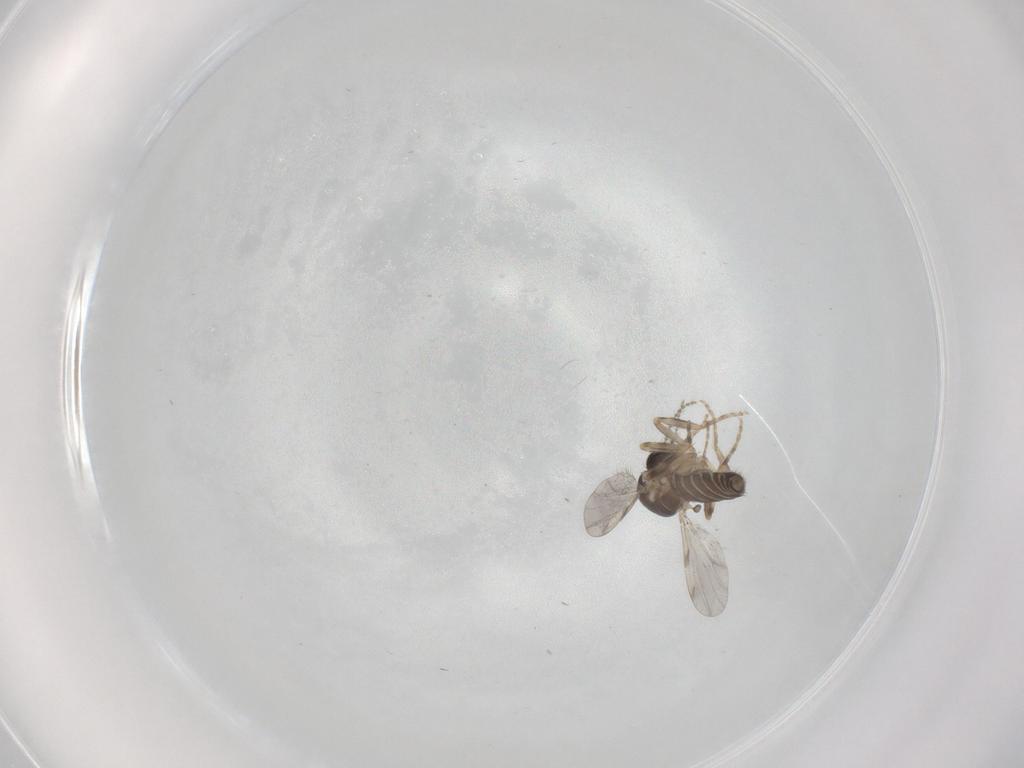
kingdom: Animalia
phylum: Arthropoda
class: Insecta
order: Diptera
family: Ceratopogonidae
